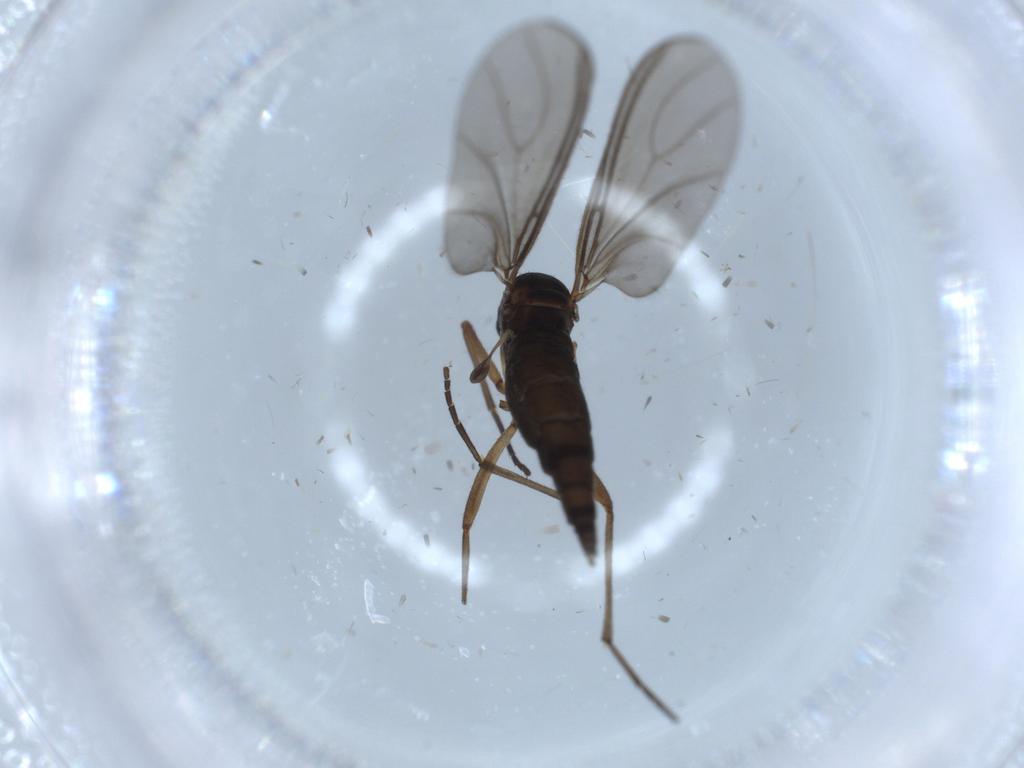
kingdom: Animalia
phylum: Arthropoda
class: Insecta
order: Diptera
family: Sciaridae
